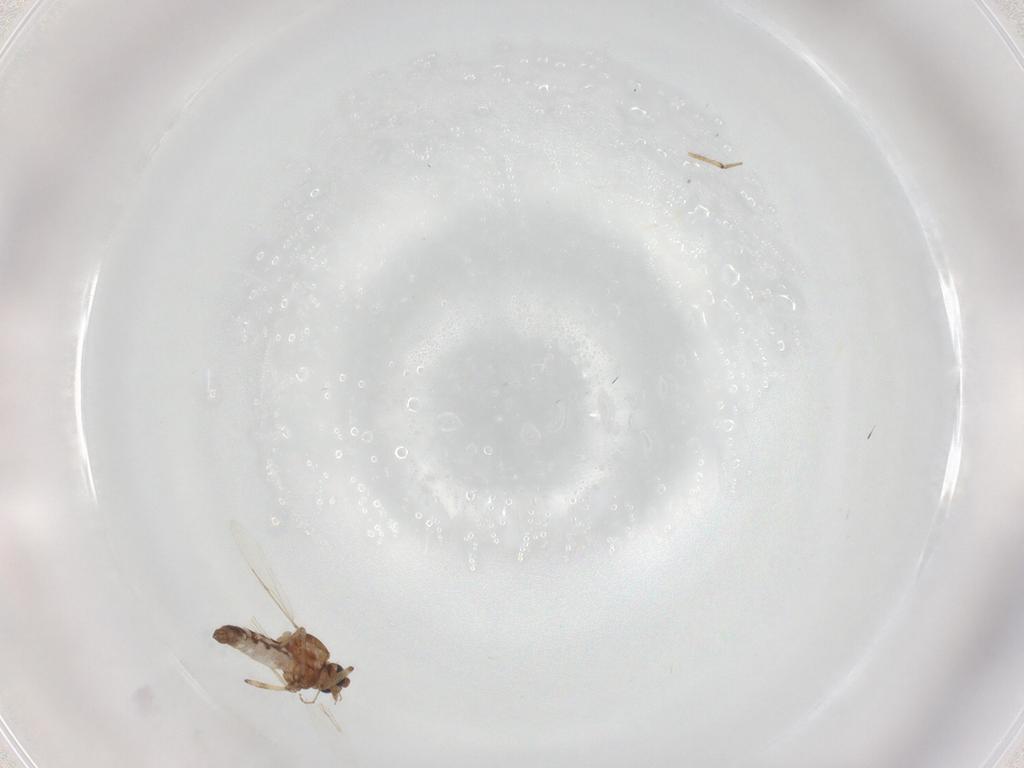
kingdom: Animalia
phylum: Arthropoda
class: Insecta
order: Diptera
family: Ceratopogonidae
